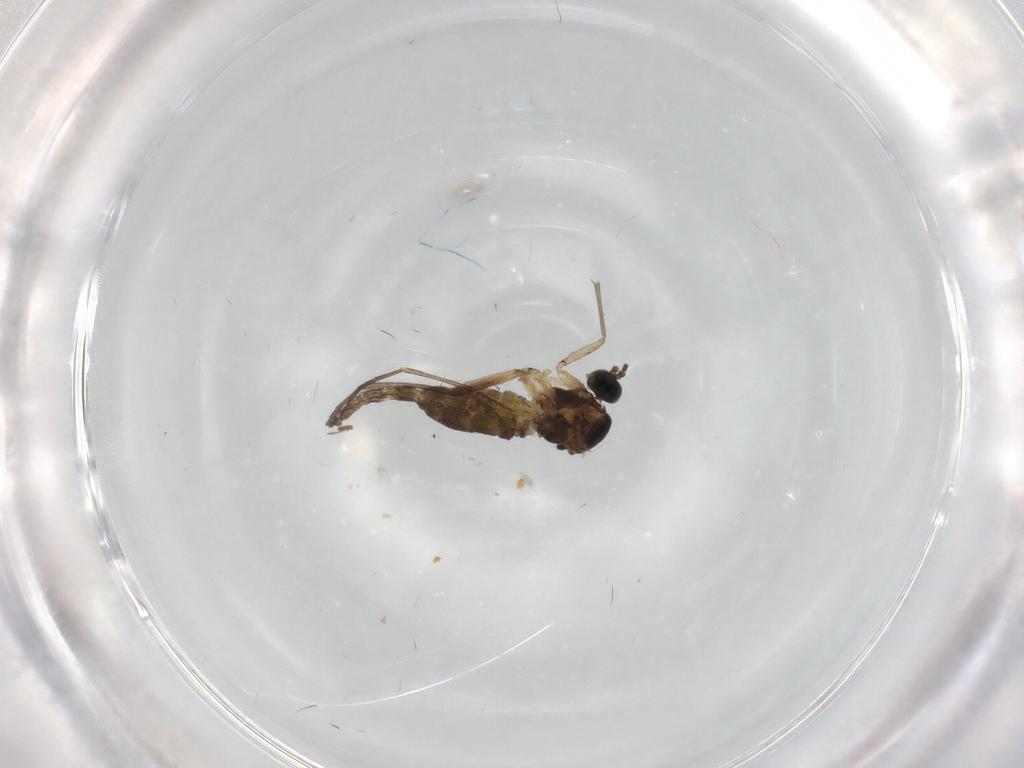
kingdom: Animalia
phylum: Arthropoda
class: Insecta
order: Diptera
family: Sciaridae
